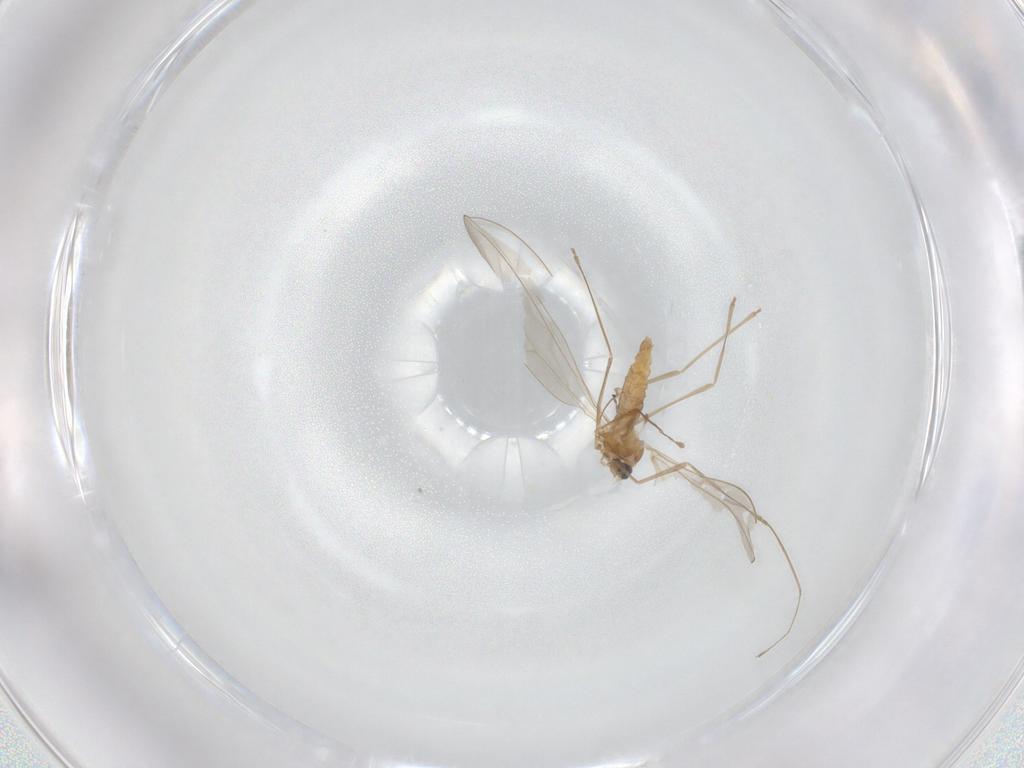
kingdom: Animalia
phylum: Arthropoda
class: Insecta
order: Diptera
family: Cecidomyiidae
